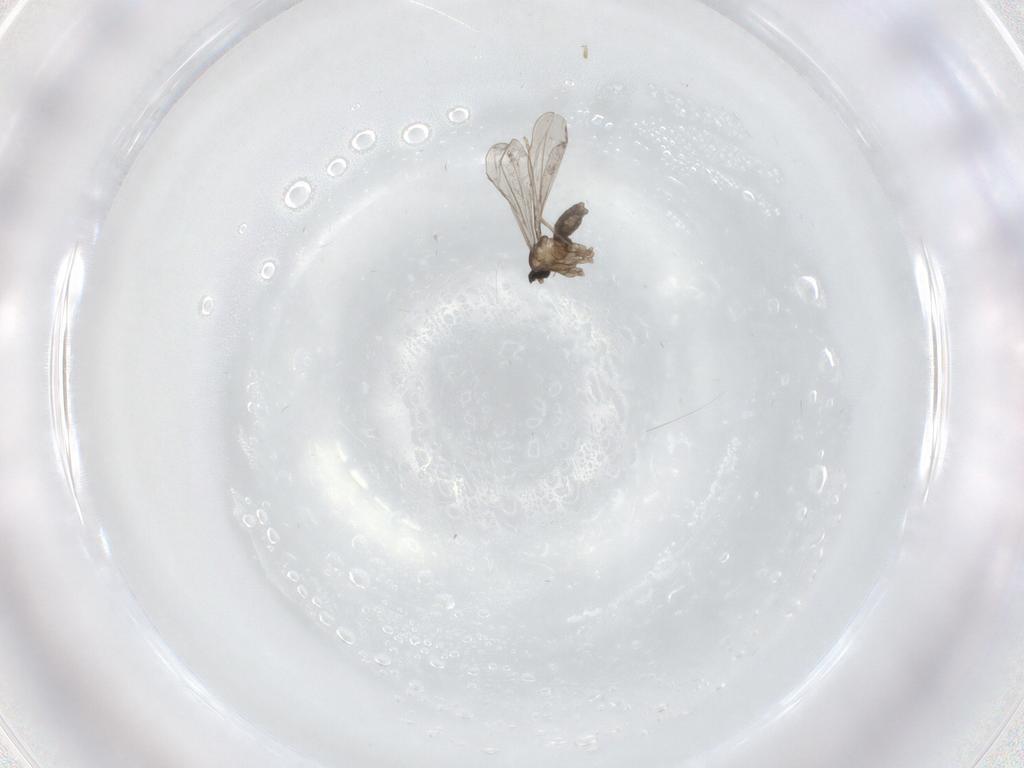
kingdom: Animalia
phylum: Arthropoda
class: Insecta
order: Diptera
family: Cecidomyiidae
